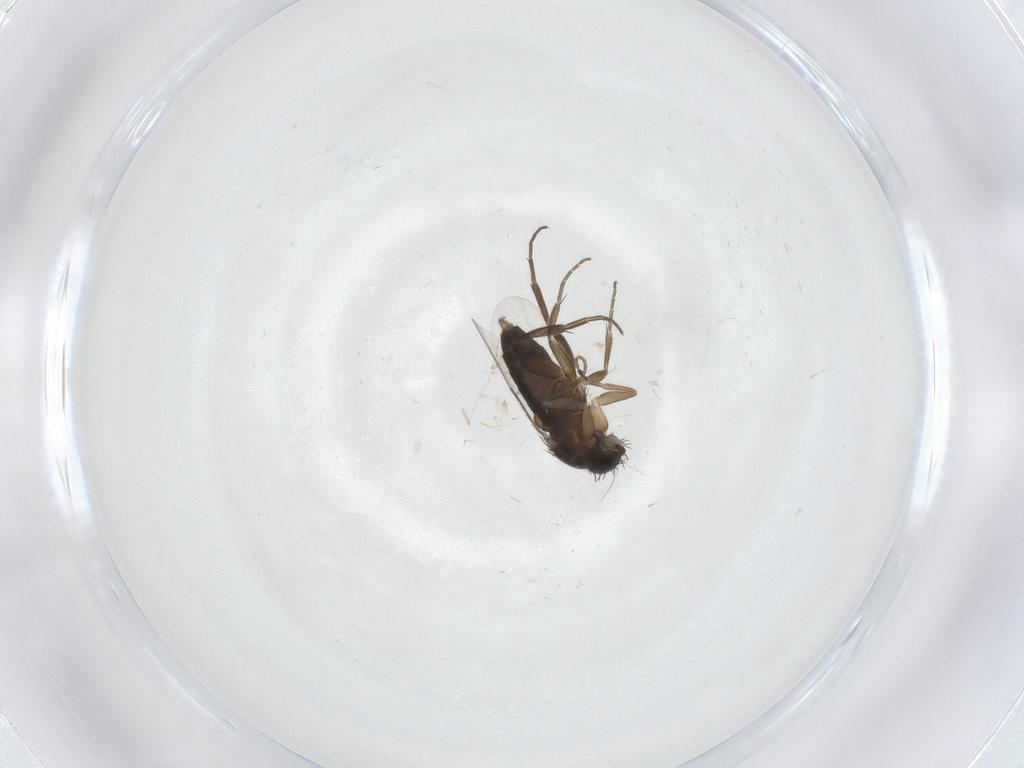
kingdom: Animalia
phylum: Arthropoda
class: Insecta
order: Diptera
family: Phoridae
